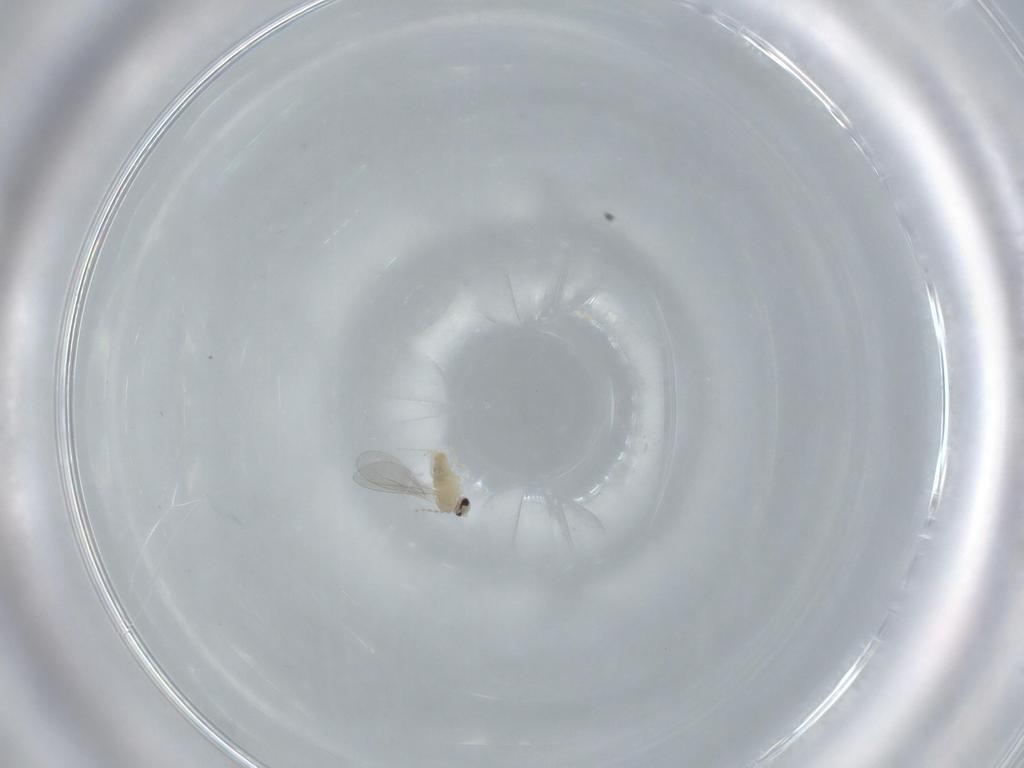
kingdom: Animalia
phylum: Arthropoda
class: Insecta
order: Diptera
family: Cecidomyiidae
